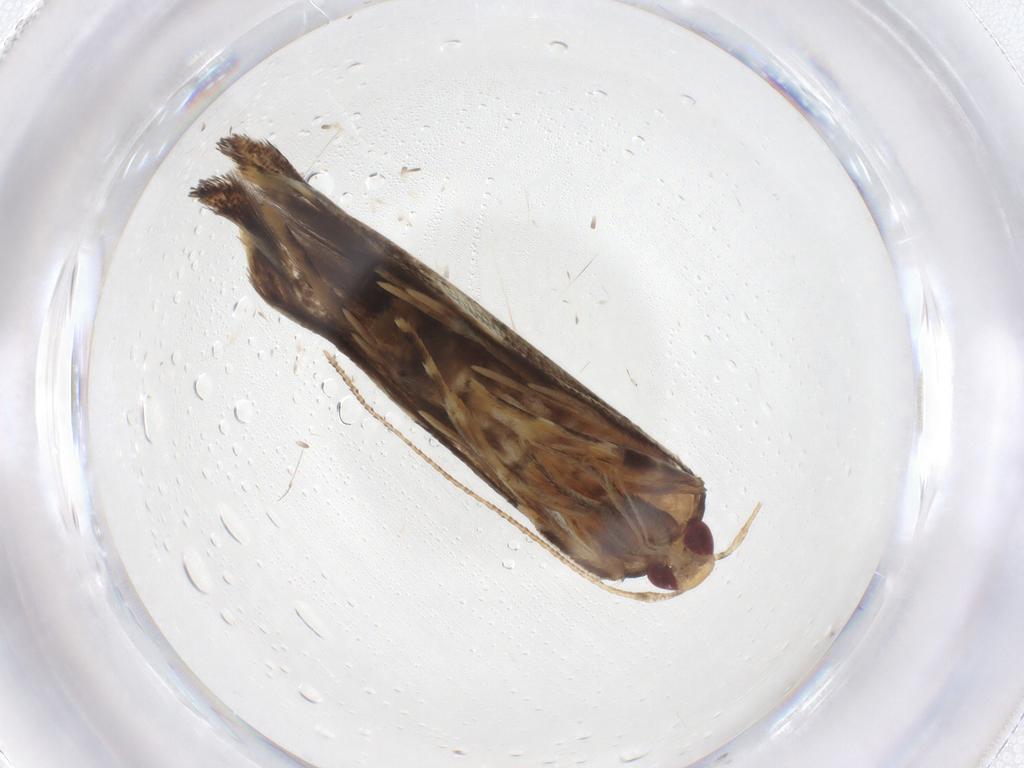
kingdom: Animalia
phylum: Arthropoda
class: Insecta
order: Lepidoptera
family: Cosmopterigidae
